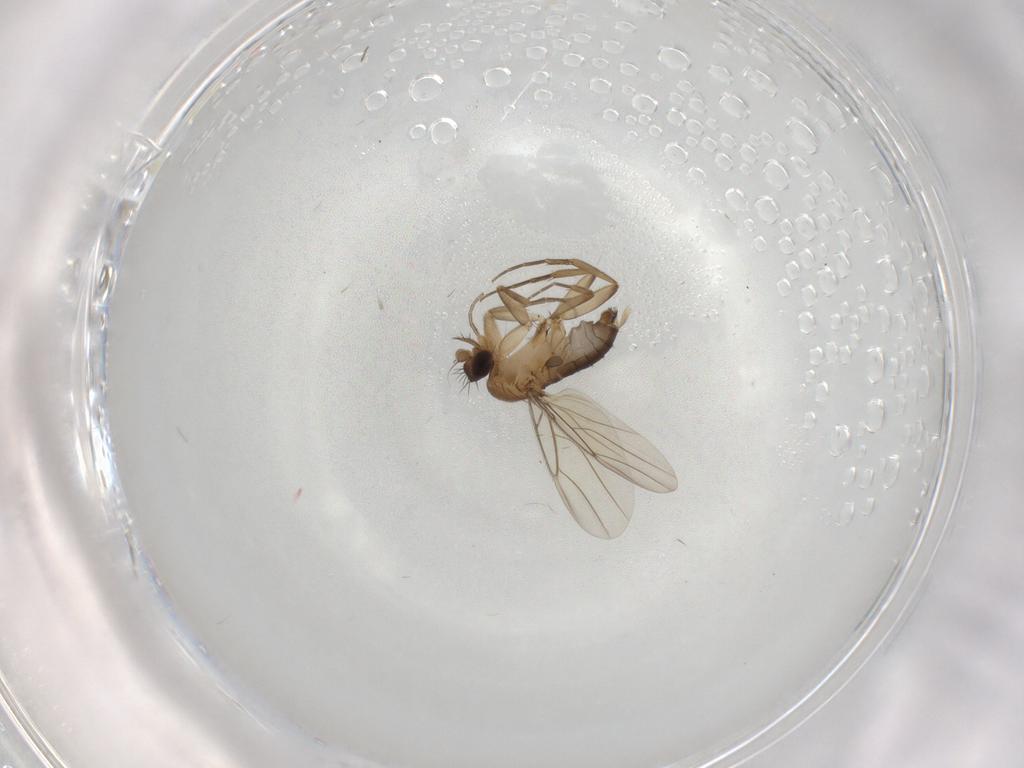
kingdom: Animalia
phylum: Arthropoda
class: Insecta
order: Diptera
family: Phoridae
